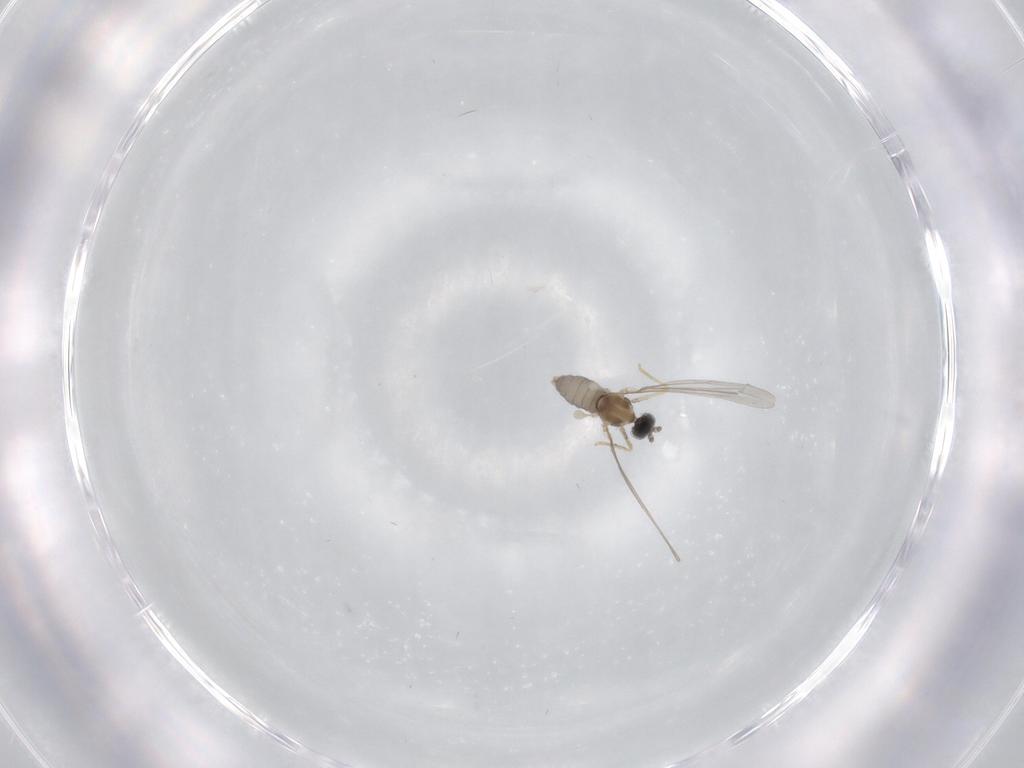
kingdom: Animalia
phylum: Arthropoda
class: Insecta
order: Diptera
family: Cecidomyiidae
